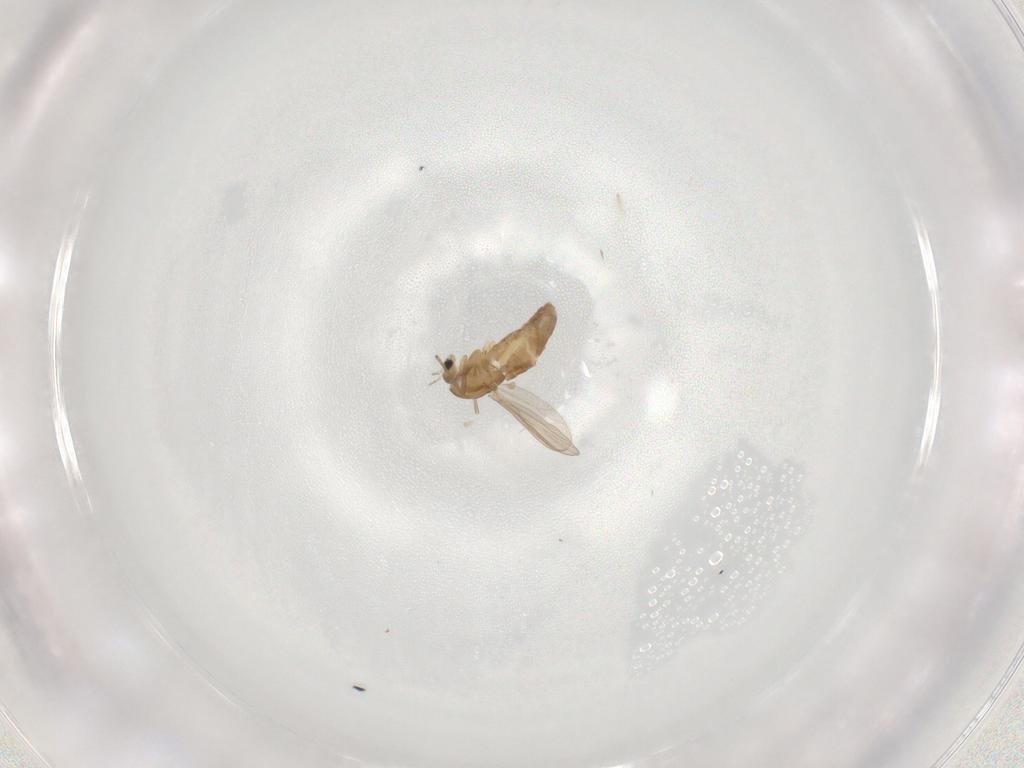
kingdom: Animalia
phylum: Arthropoda
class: Insecta
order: Diptera
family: Chironomidae
